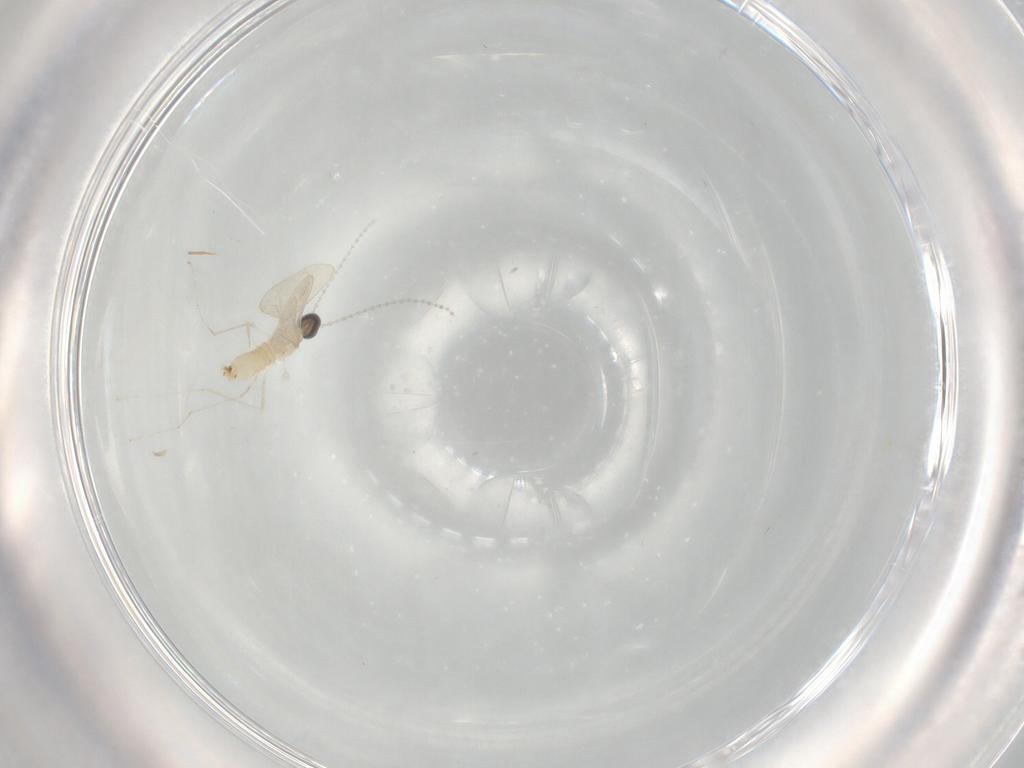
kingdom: Animalia
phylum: Arthropoda
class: Insecta
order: Diptera
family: Cecidomyiidae
